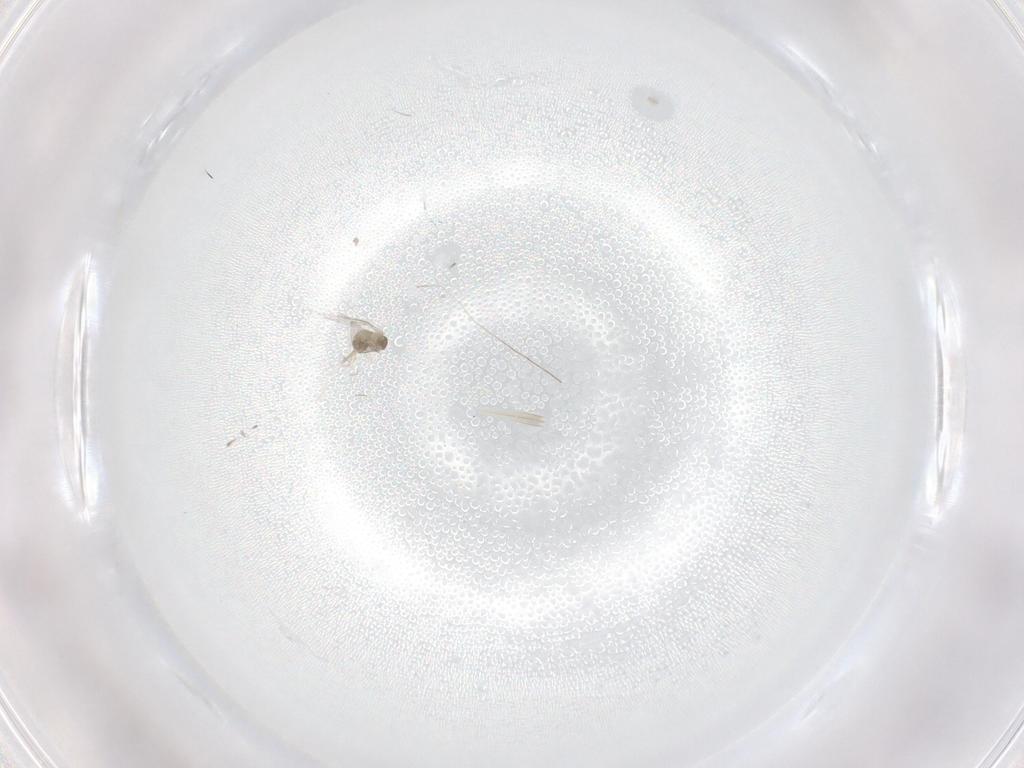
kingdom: Animalia
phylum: Arthropoda
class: Insecta
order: Diptera
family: Cecidomyiidae
